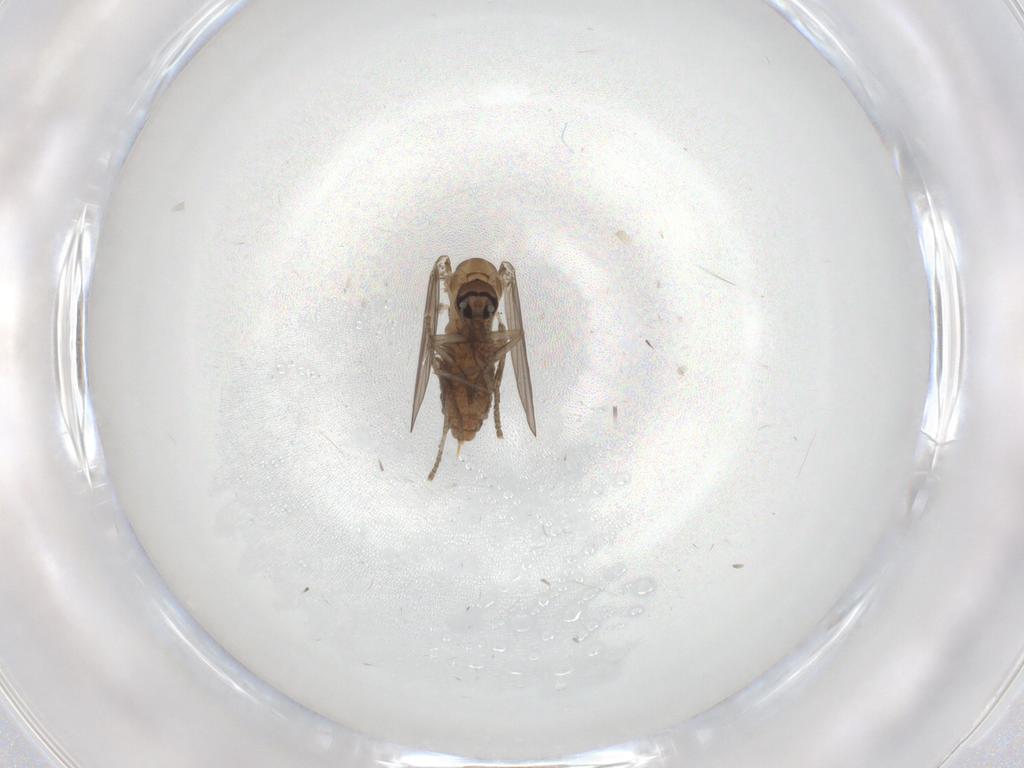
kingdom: Animalia
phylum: Arthropoda
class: Insecta
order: Diptera
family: Psychodidae
